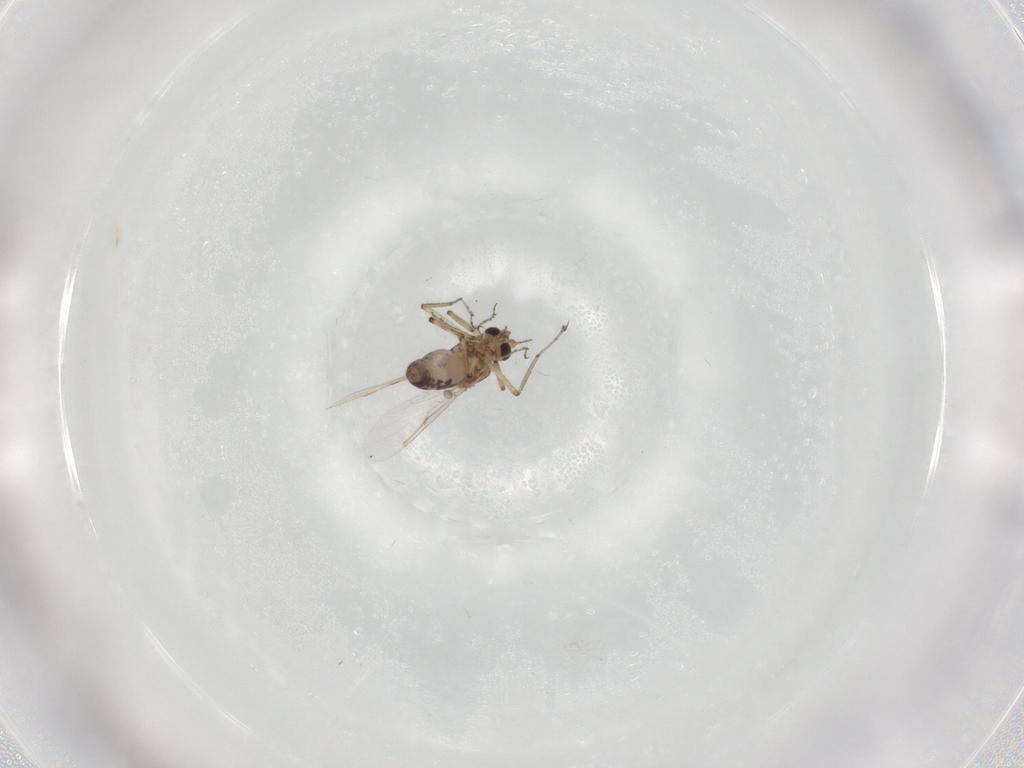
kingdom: Animalia
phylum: Arthropoda
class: Insecta
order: Diptera
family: Ceratopogonidae
